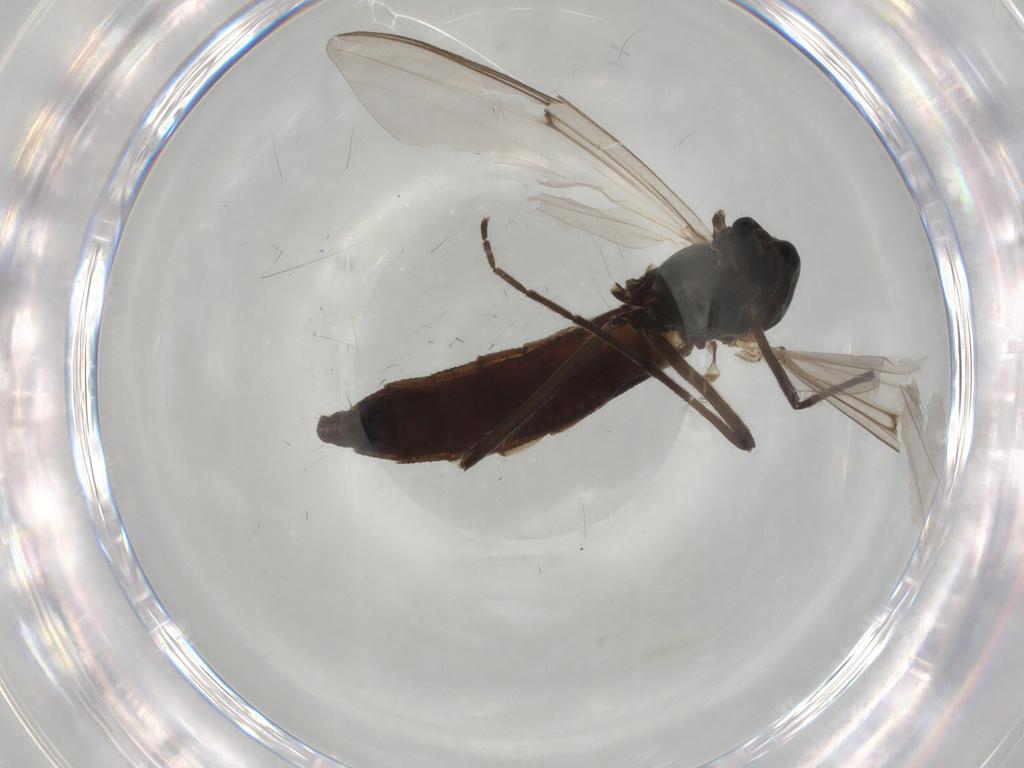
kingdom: Animalia
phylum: Arthropoda
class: Insecta
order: Diptera
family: Chironomidae
